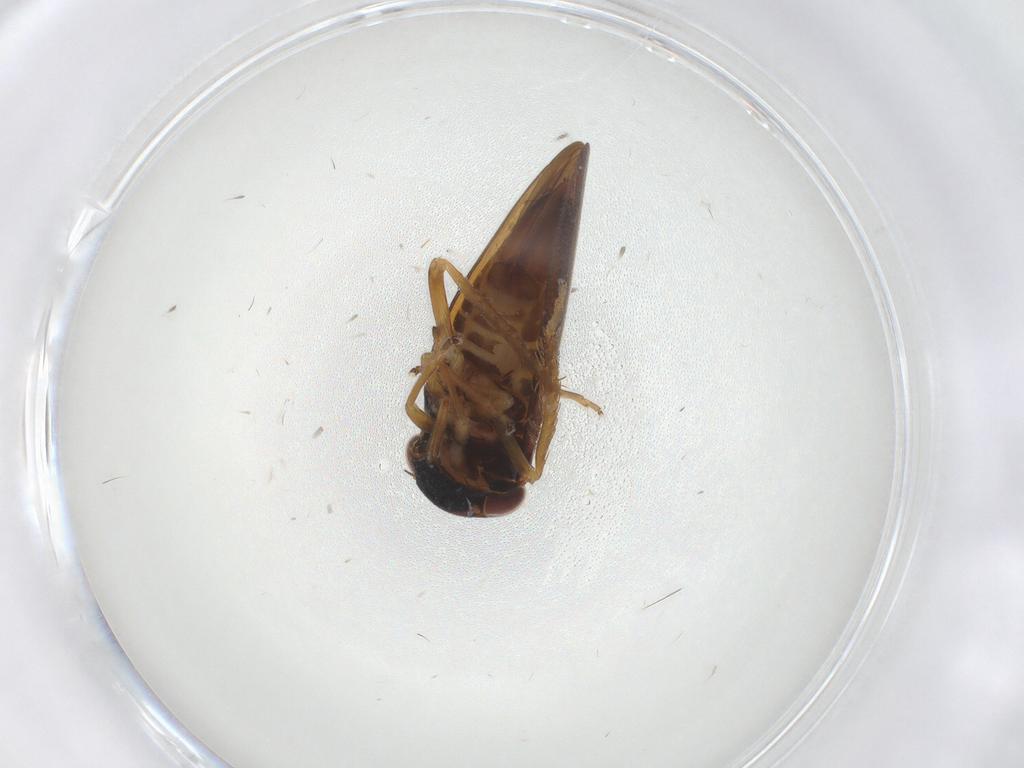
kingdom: Animalia
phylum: Arthropoda
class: Insecta
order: Hemiptera
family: Cicadellidae
